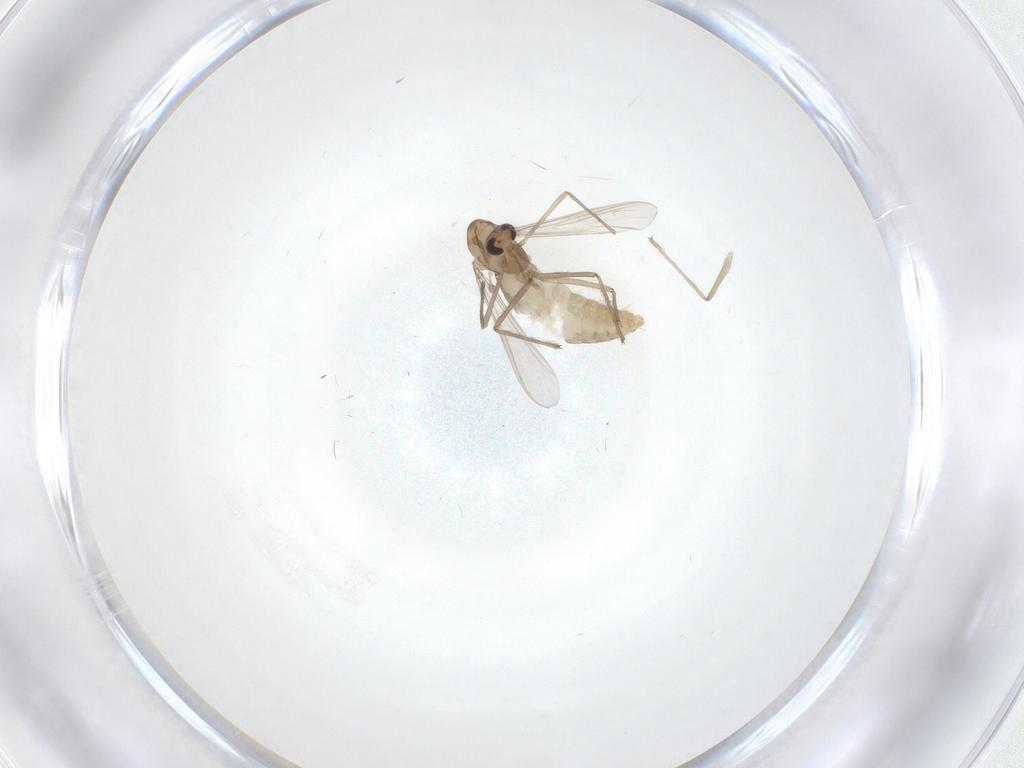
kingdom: Animalia
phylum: Arthropoda
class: Insecta
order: Diptera
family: Chironomidae
